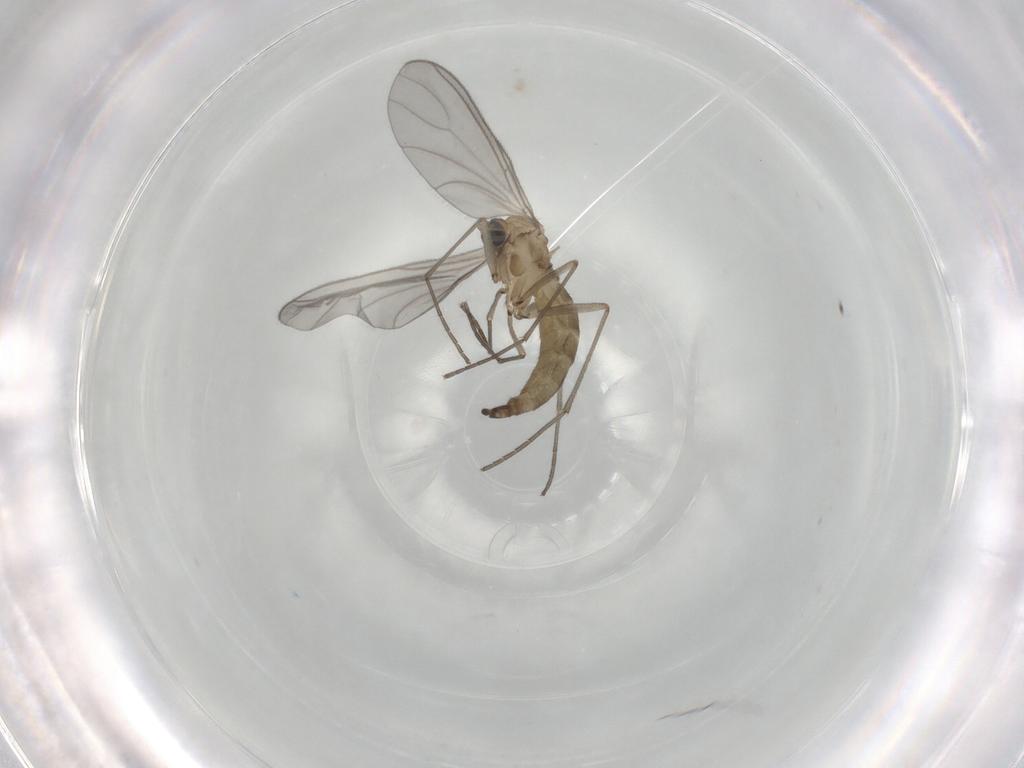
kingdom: Animalia
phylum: Arthropoda
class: Insecta
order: Diptera
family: Sciaridae
